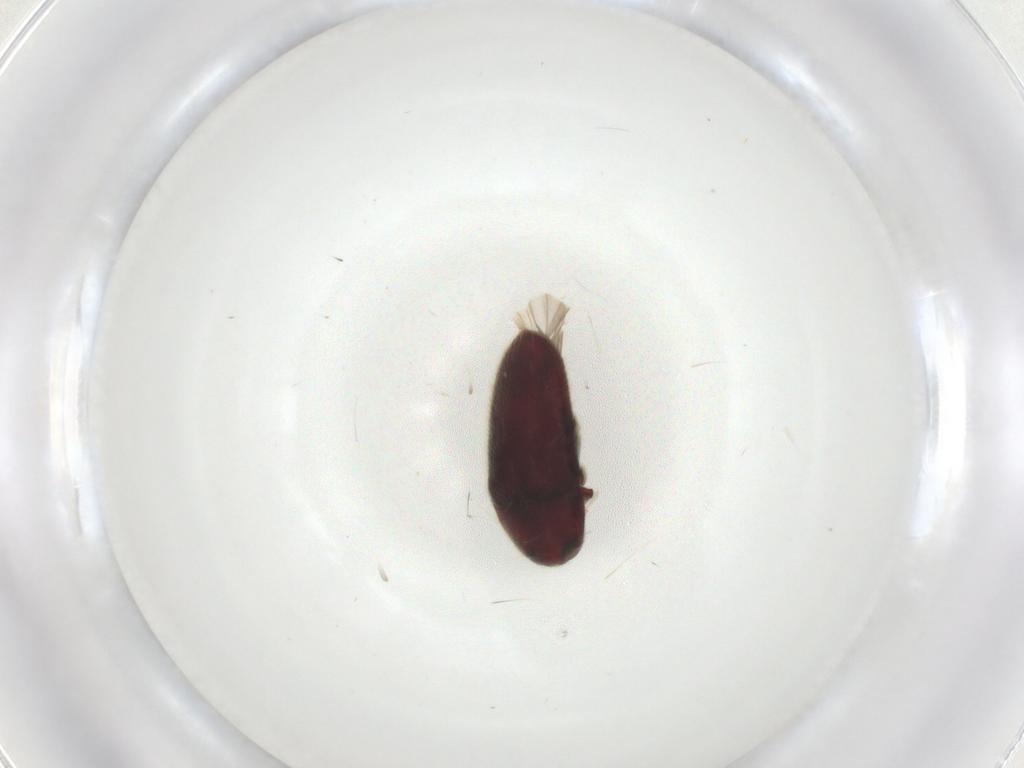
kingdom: Animalia
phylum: Arthropoda
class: Insecta
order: Coleoptera
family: Throscidae
